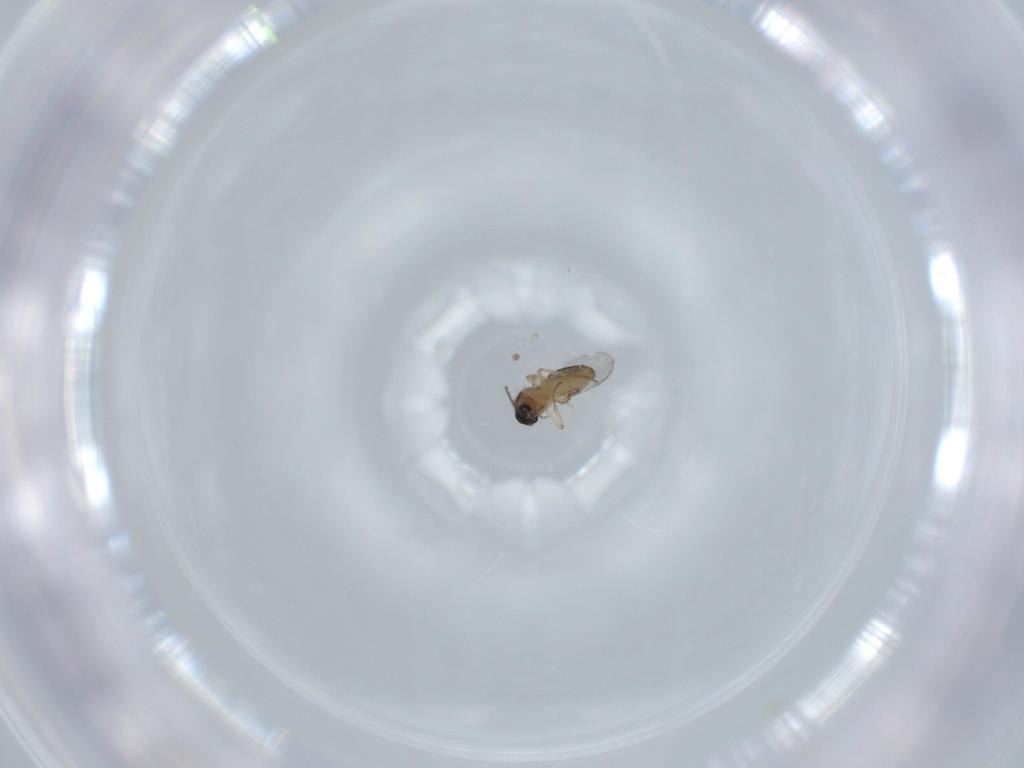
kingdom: Animalia
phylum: Arthropoda
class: Insecta
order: Diptera
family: Ceratopogonidae
